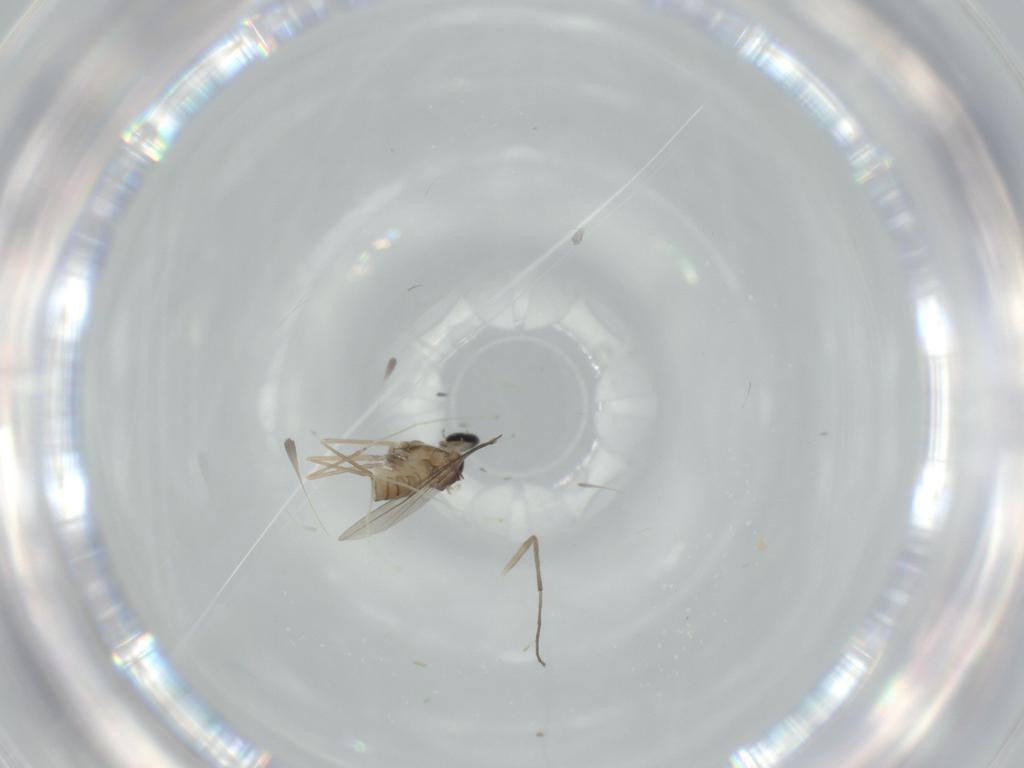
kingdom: Animalia
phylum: Arthropoda
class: Insecta
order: Diptera
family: Cecidomyiidae
